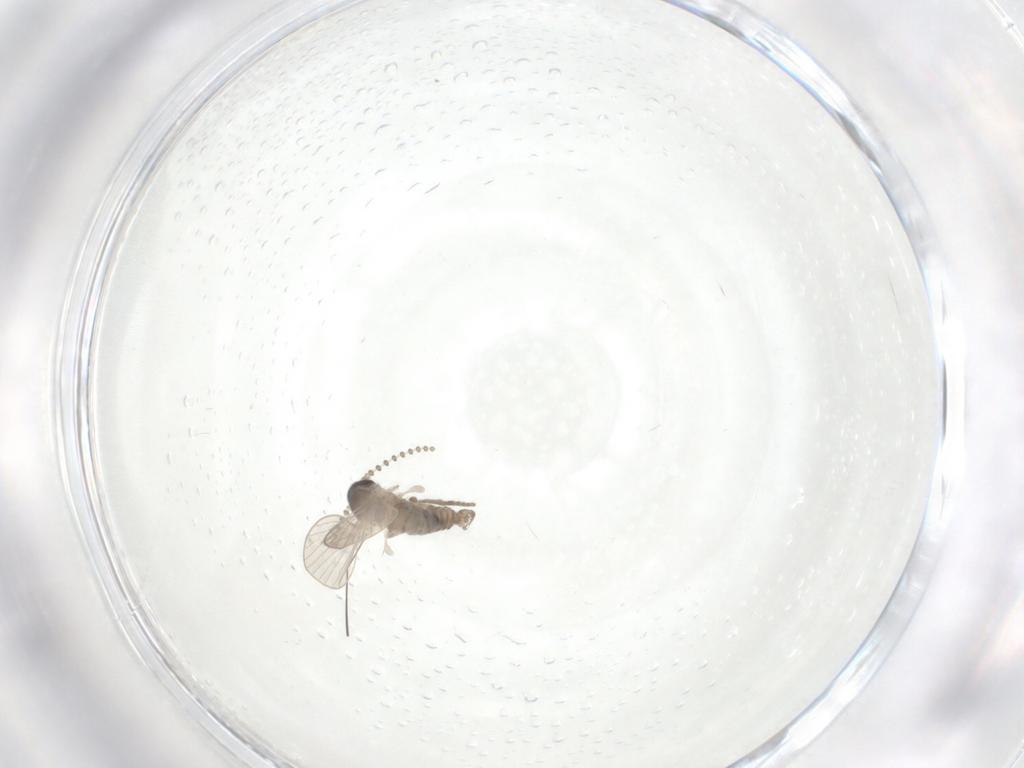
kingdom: Animalia
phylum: Arthropoda
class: Insecta
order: Diptera
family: Psychodidae
